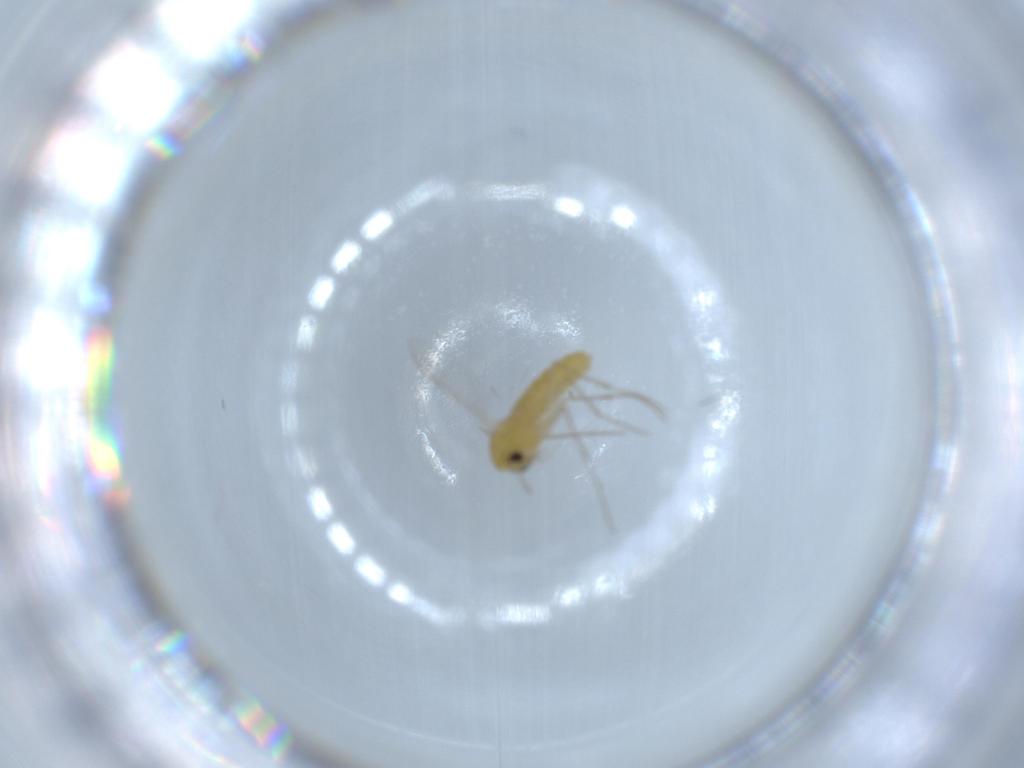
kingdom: Animalia
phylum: Arthropoda
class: Insecta
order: Diptera
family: Chironomidae
